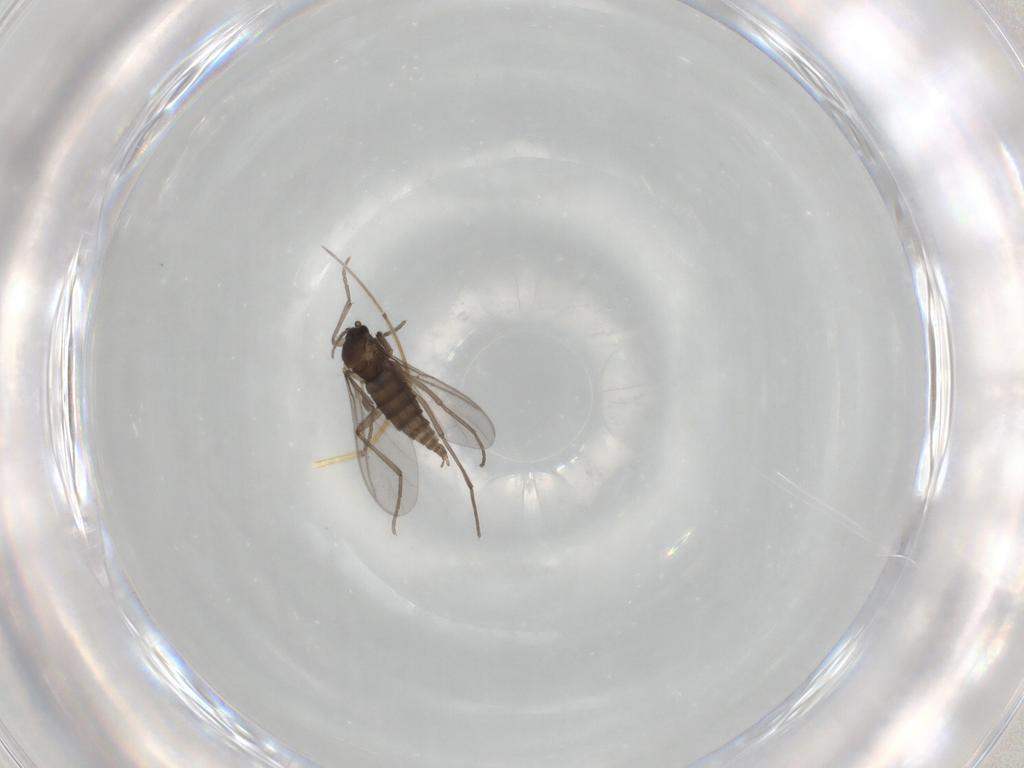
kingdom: Animalia
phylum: Arthropoda
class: Insecta
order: Diptera
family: Sciaridae
